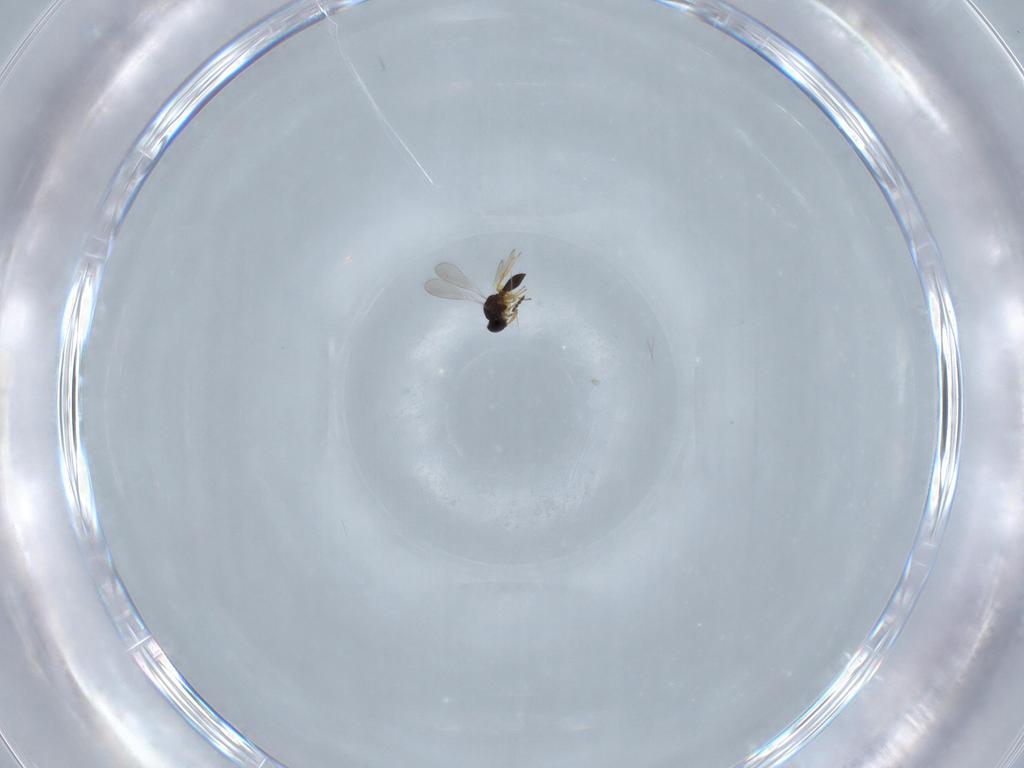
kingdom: Animalia
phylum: Arthropoda
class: Insecta
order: Hymenoptera
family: Platygastridae
